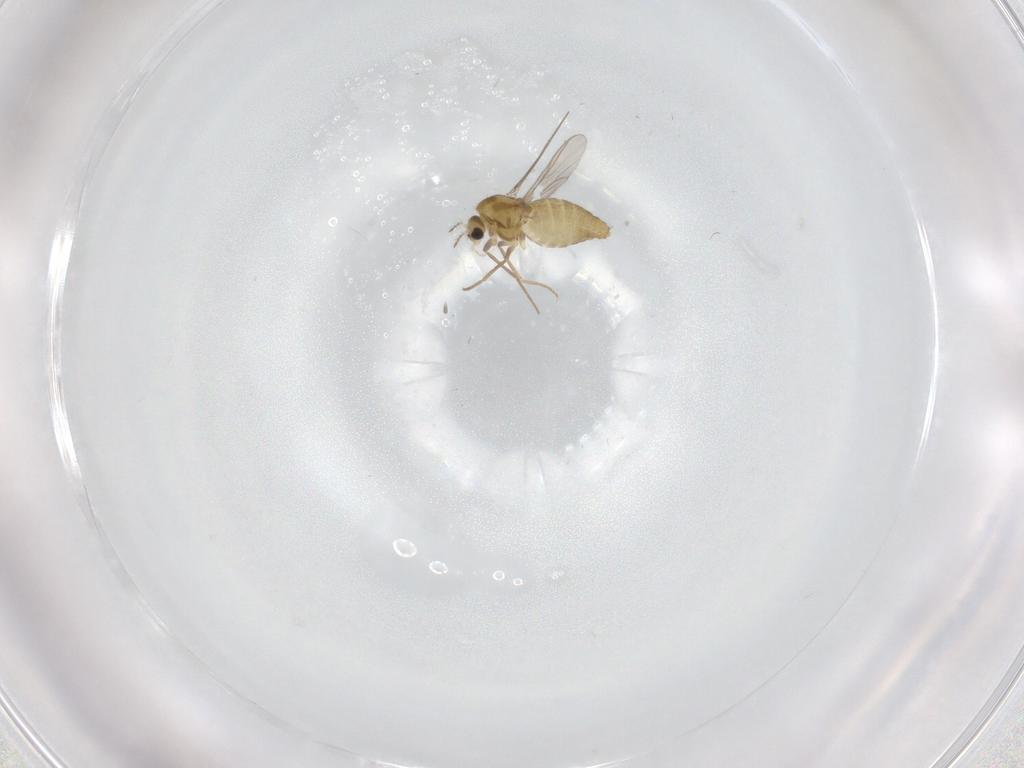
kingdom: Animalia
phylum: Arthropoda
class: Insecta
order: Diptera
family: Chironomidae
